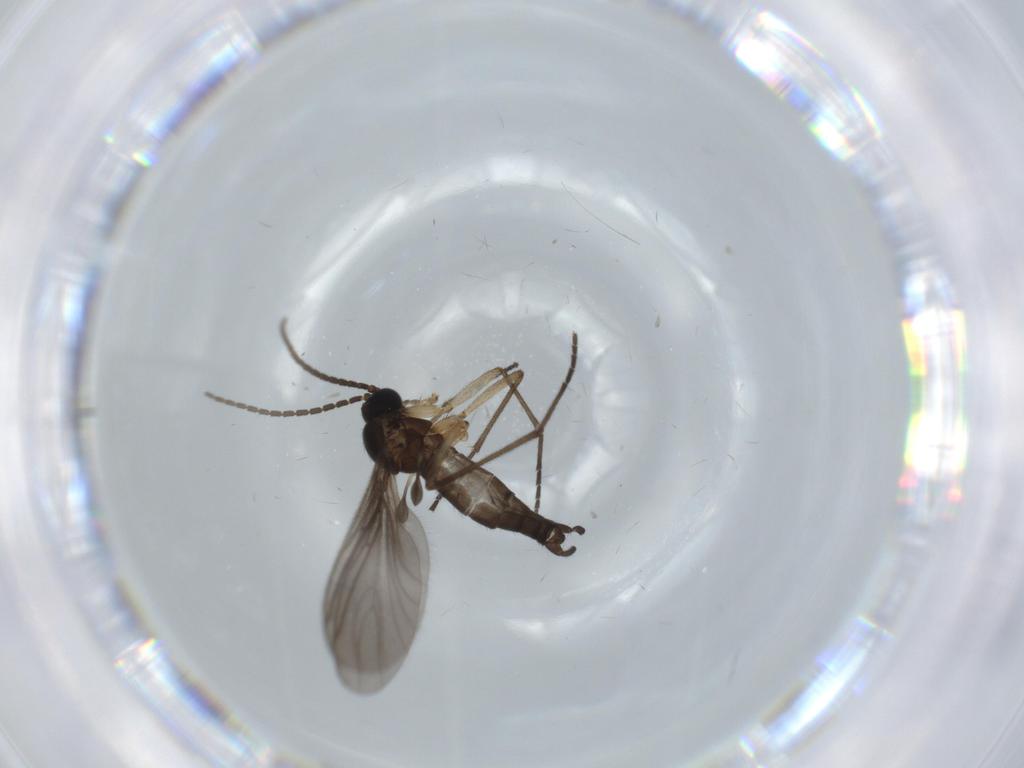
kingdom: Animalia
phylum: Arthropoda
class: Insecta
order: Diptera
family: Sciaridae
